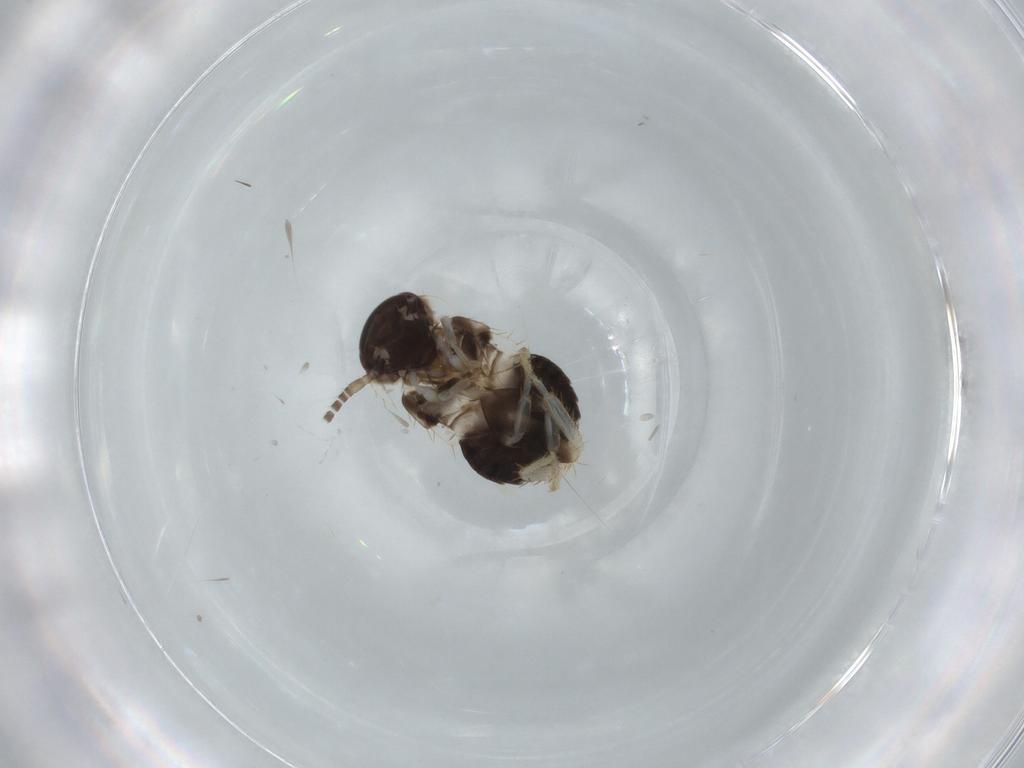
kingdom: Animalia
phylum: Arthropoda
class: Insecta
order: Blattodea
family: Ectobiidae
